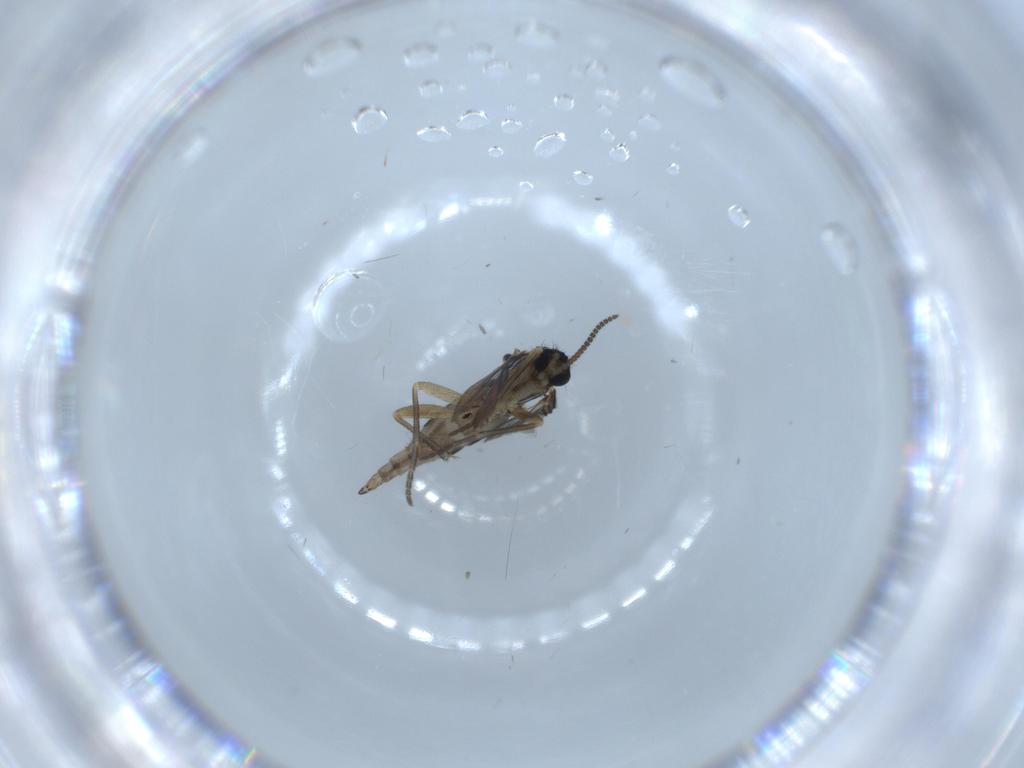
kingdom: Animalia
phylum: Arthropoda
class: Insecta
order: Diptera
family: Sciaridae
